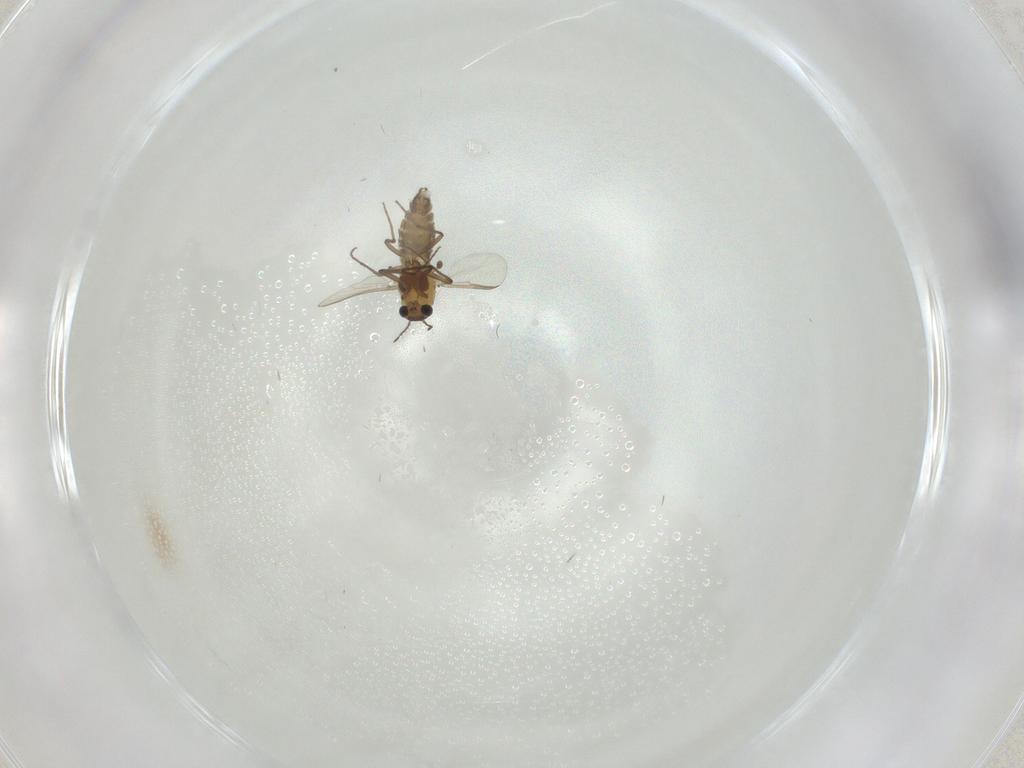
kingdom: Animalia
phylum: Arthropoda
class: Insecta
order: Diptera
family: Chironomidae
